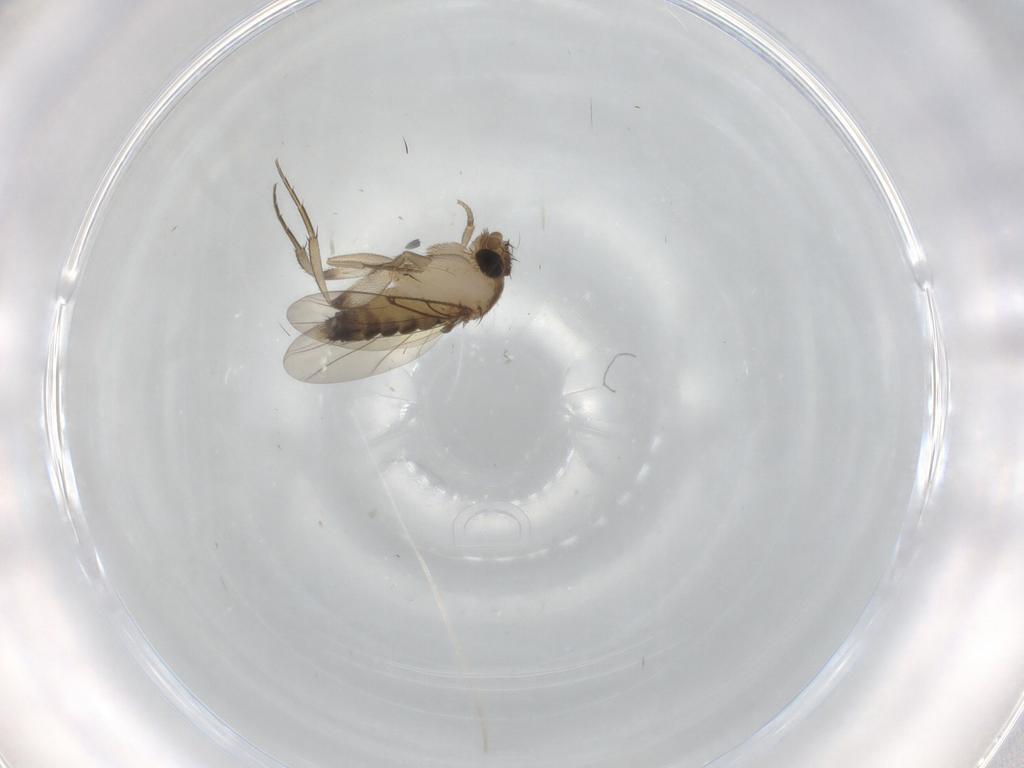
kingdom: Animalia
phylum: Arthropoda
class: Insecta
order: Diptera
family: Phoridae
